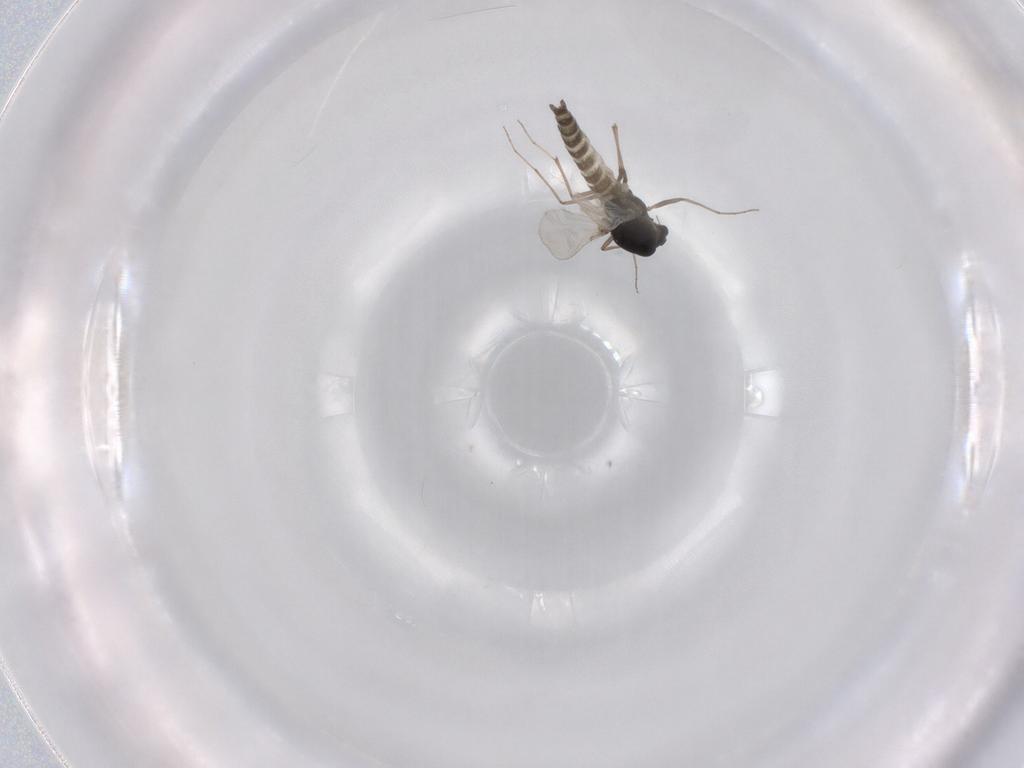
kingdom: Animalia
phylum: Arthropoda
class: Insecta
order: Diptera
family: Chironomidae
